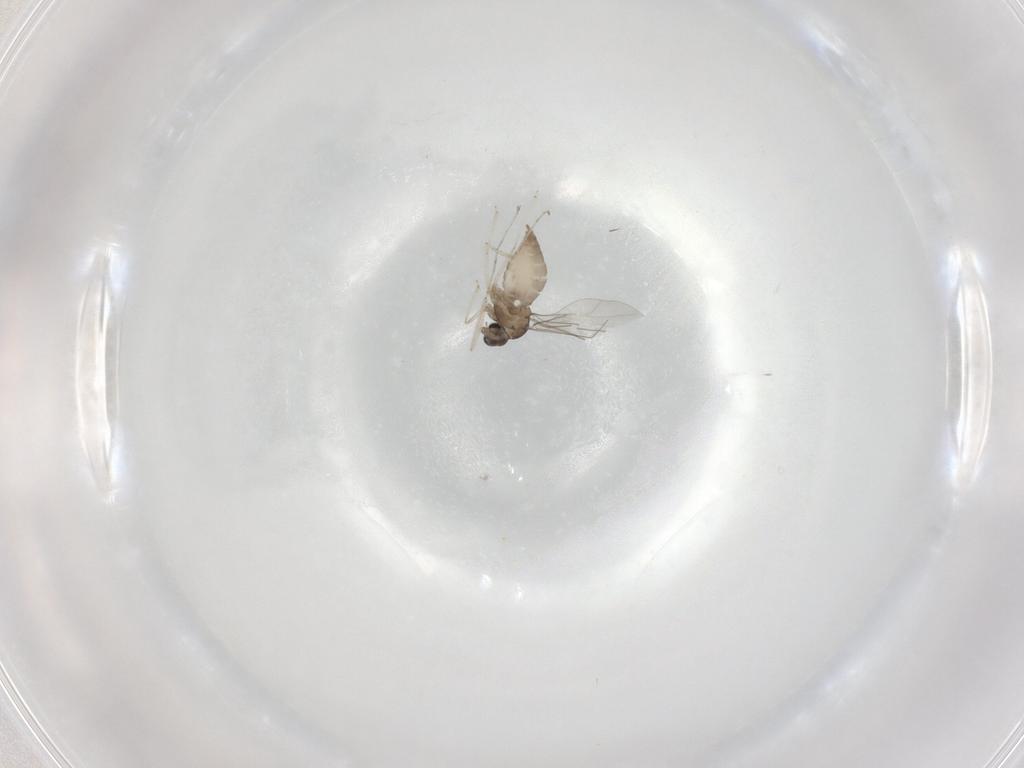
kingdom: Animalia
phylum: Arthropoda
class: Insecta
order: Diptera
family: Cecidomyiidae
